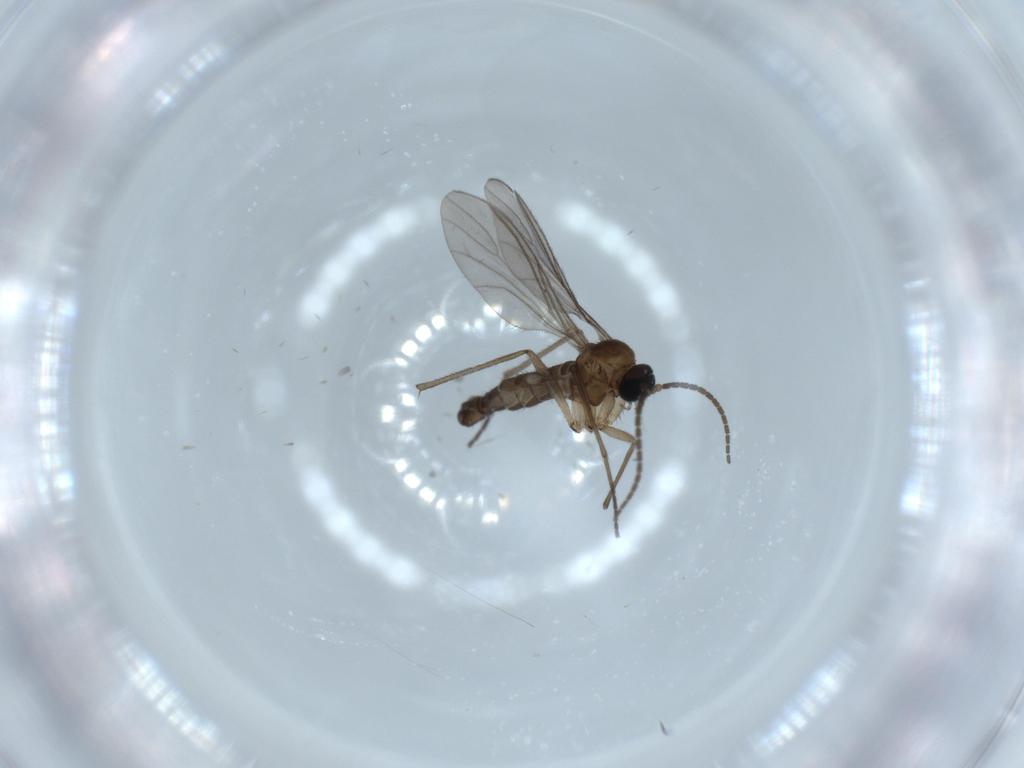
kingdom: Animalia
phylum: Arthropoda
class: Insecta
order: Diptera
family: Sciaridae
